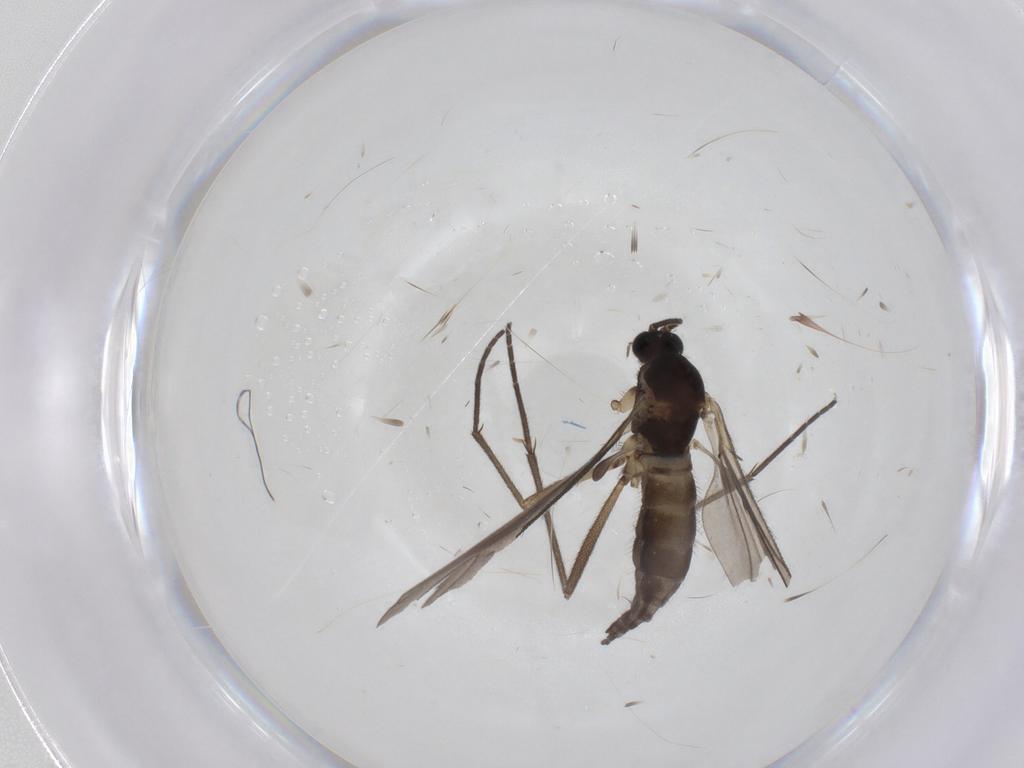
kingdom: Animalia
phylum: Arthropoda
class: Insecta
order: Diptera
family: Sciaridae
